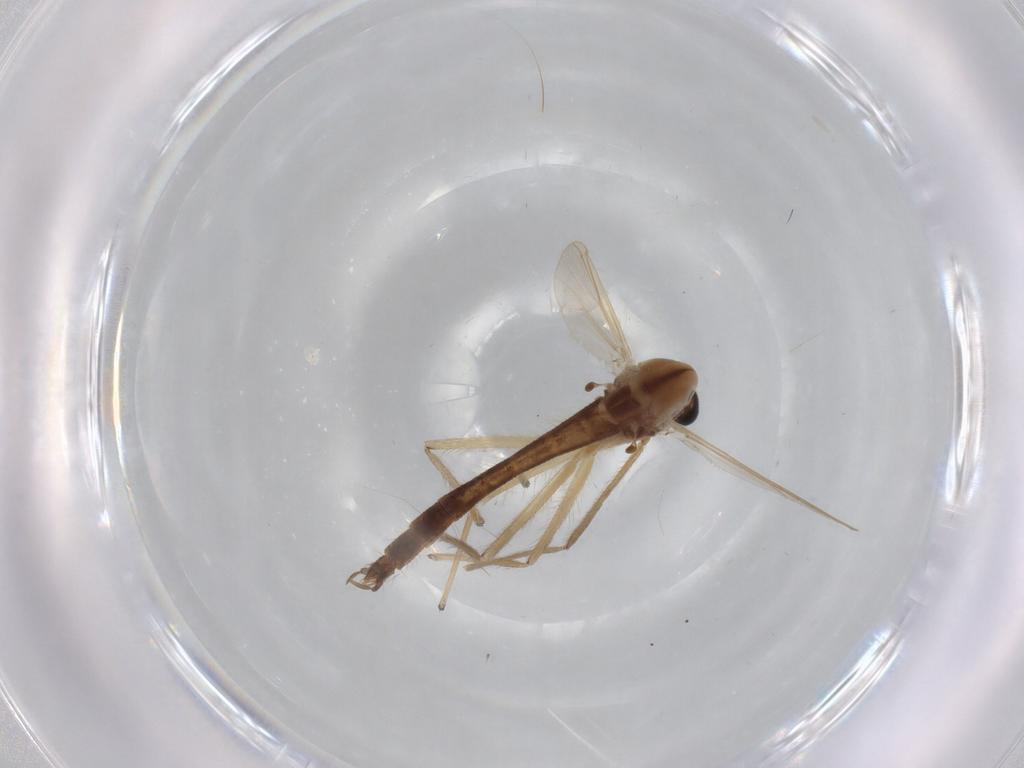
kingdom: Animalia
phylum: Arthropoda
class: Insecta
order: Diptera
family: Chironomidae
